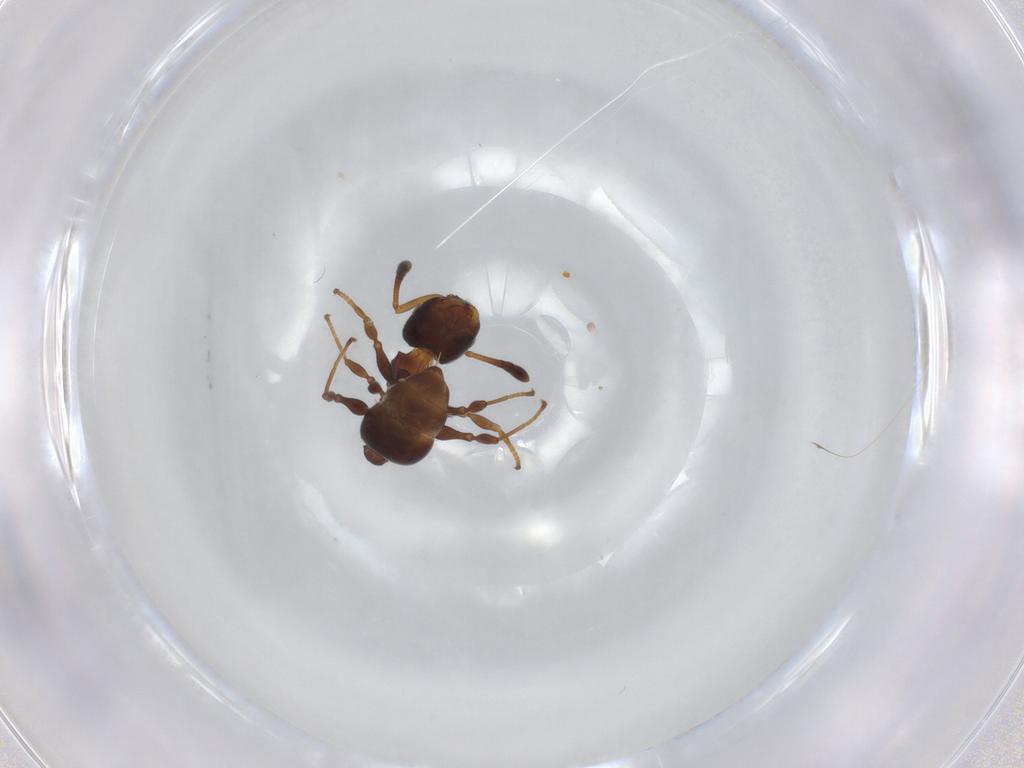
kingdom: Animalia
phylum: Arthropoda
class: Insecta
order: Hymenoptera
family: Formicidae
